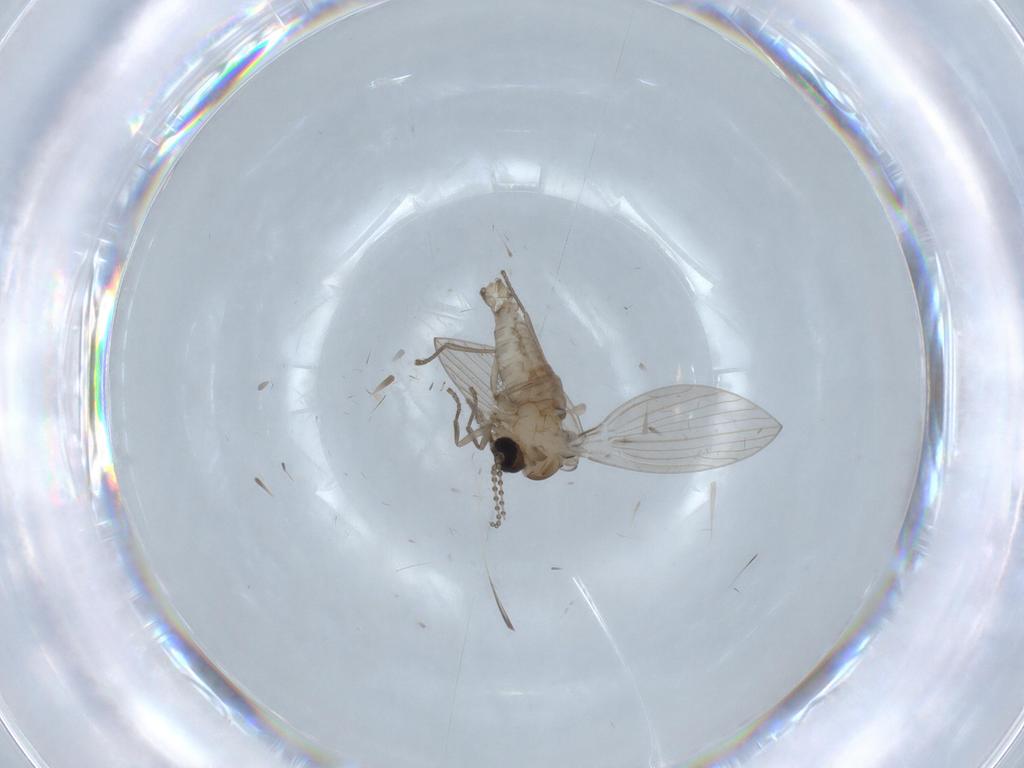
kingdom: Animalia
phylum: Arthropoda
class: Insecta
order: Diptera
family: Psychodidae
